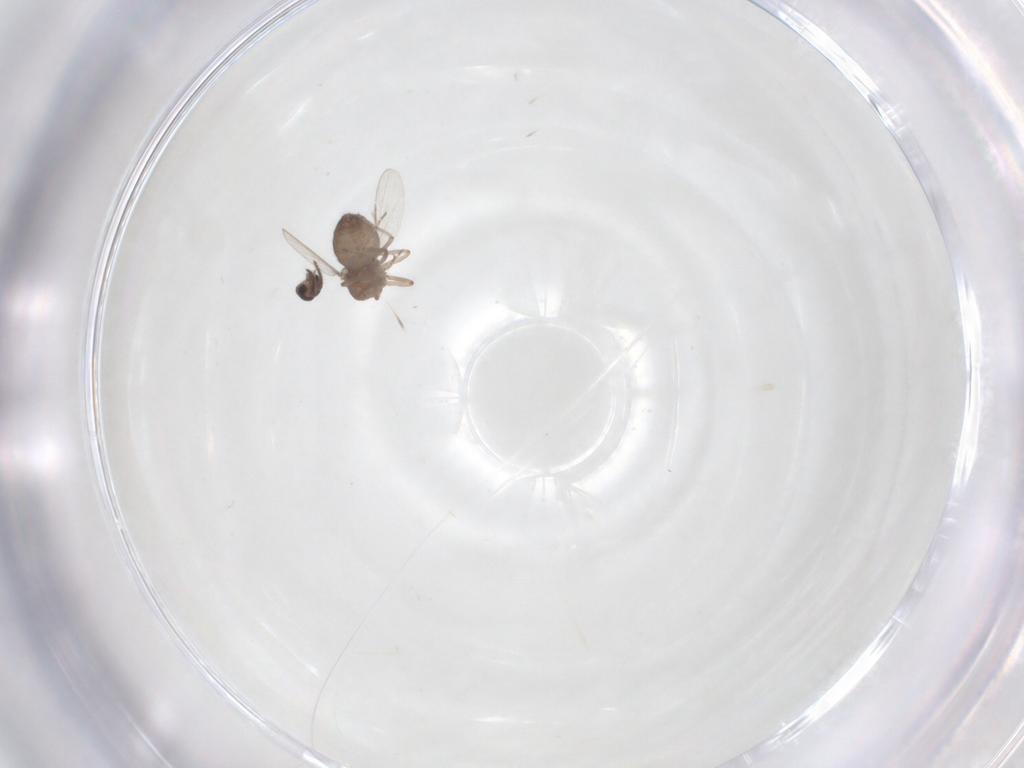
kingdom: Animalia
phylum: Arthropoda
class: Insecta
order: Diptera
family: Ceratopogonidae
